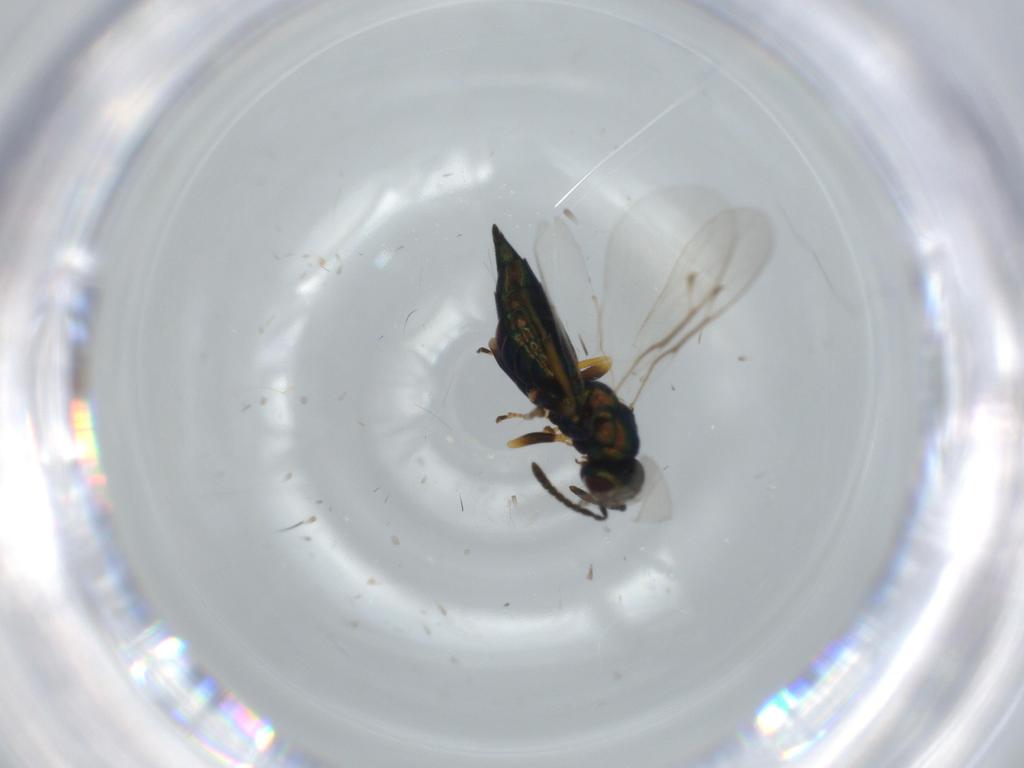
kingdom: Animalia
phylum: Arthropoda
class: Insecta
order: Hymenoptera
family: Pteromalidae
